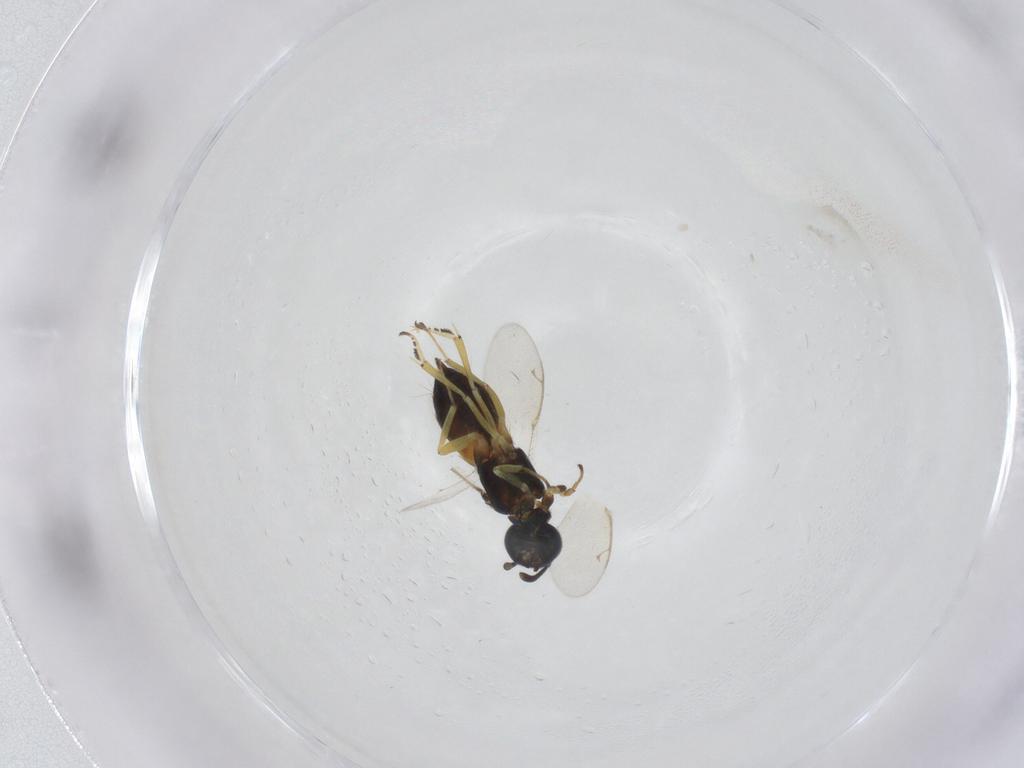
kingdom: Animalia
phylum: Arthropoda
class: Insecta
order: Hymenoptera
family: Eupelmidae
